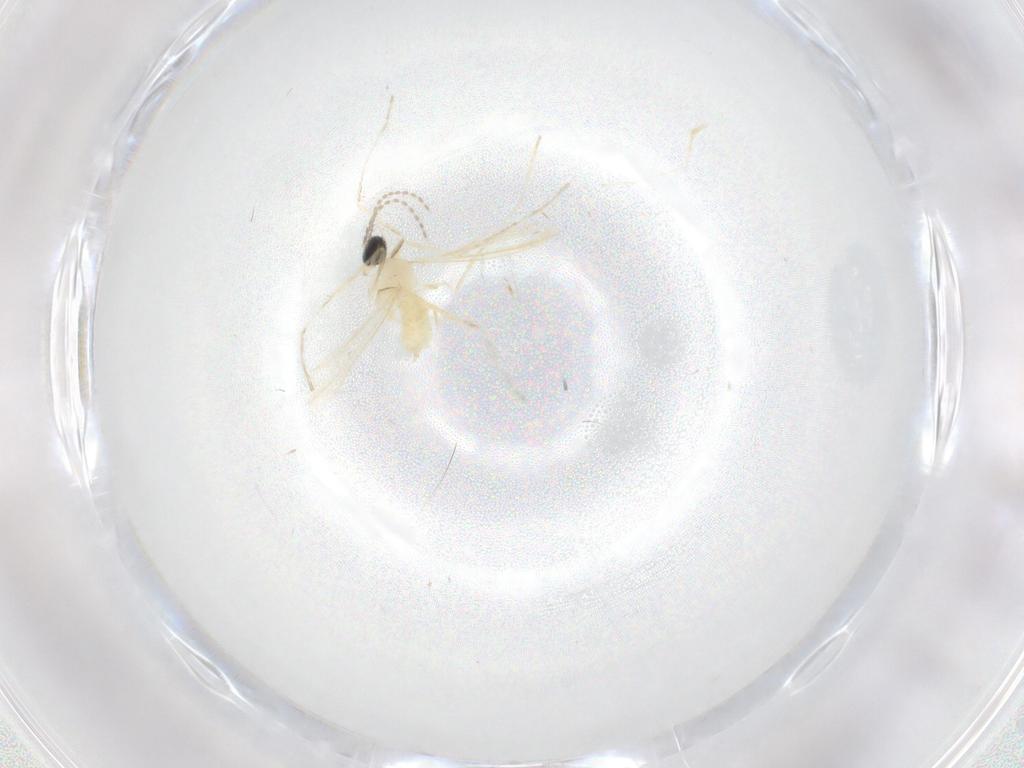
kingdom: Animalia
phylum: Arthropoda
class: Insecta
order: Diptera
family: Cecidomyiidae
